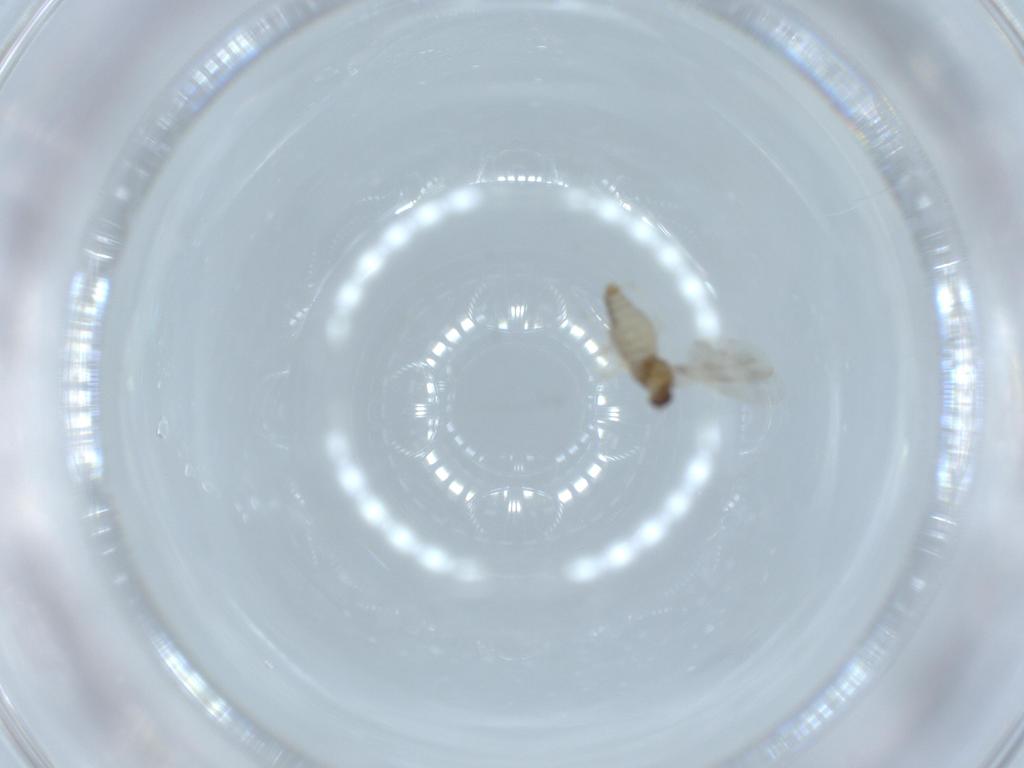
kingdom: Animalia
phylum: Arthropoda
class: Insecta
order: Diptera
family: Cecidomyiidae
